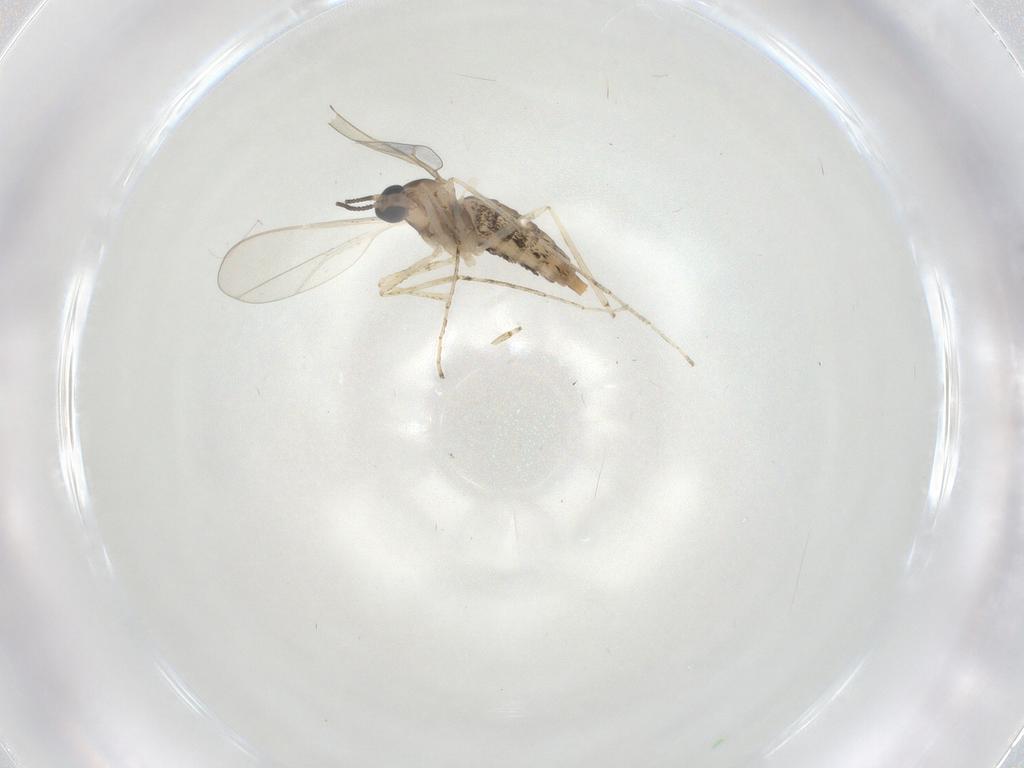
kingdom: Animalia
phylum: Arthropoda
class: Insecta
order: Diptera
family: Cecidomyiidae
